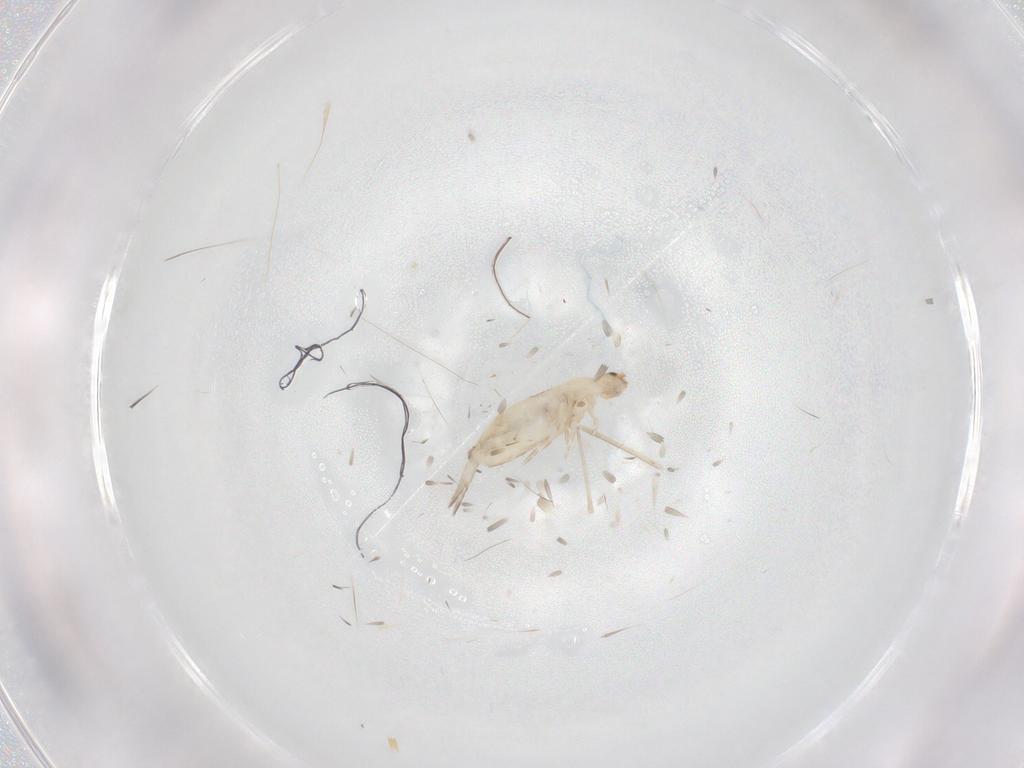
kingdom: Animalia
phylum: Arthropoda
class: Collembola
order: Entomobryomorpha
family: Entomobryidae
